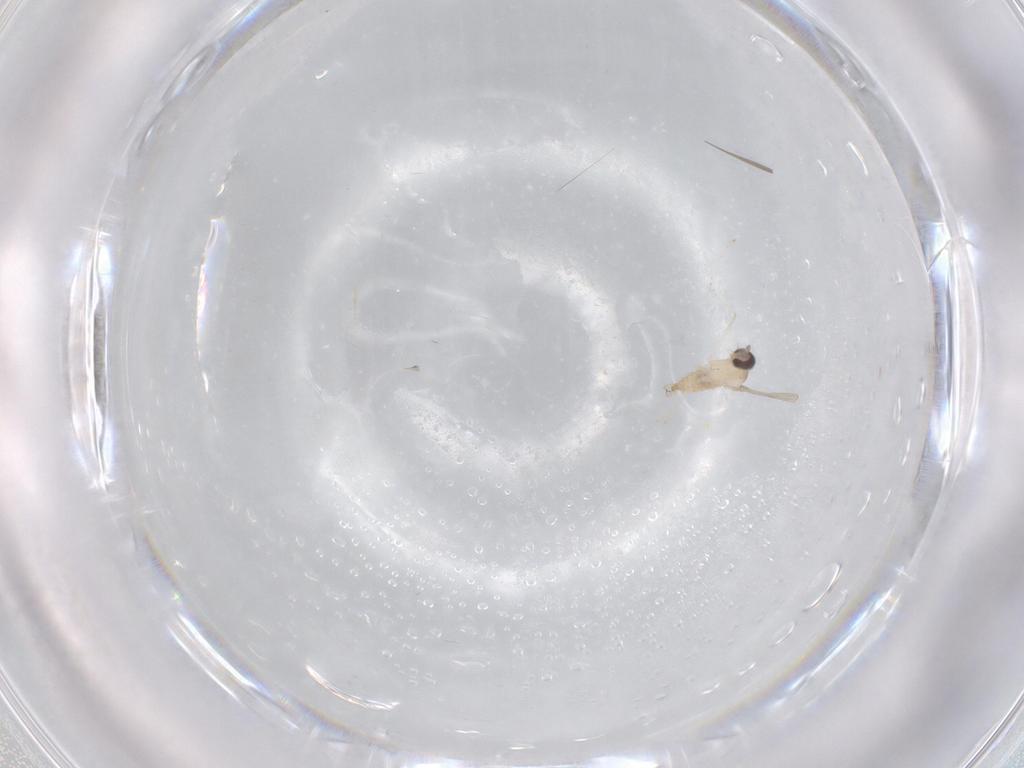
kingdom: Animalia
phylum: Arthropoda
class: Insecta
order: Diptera
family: Cecidomyiidae
